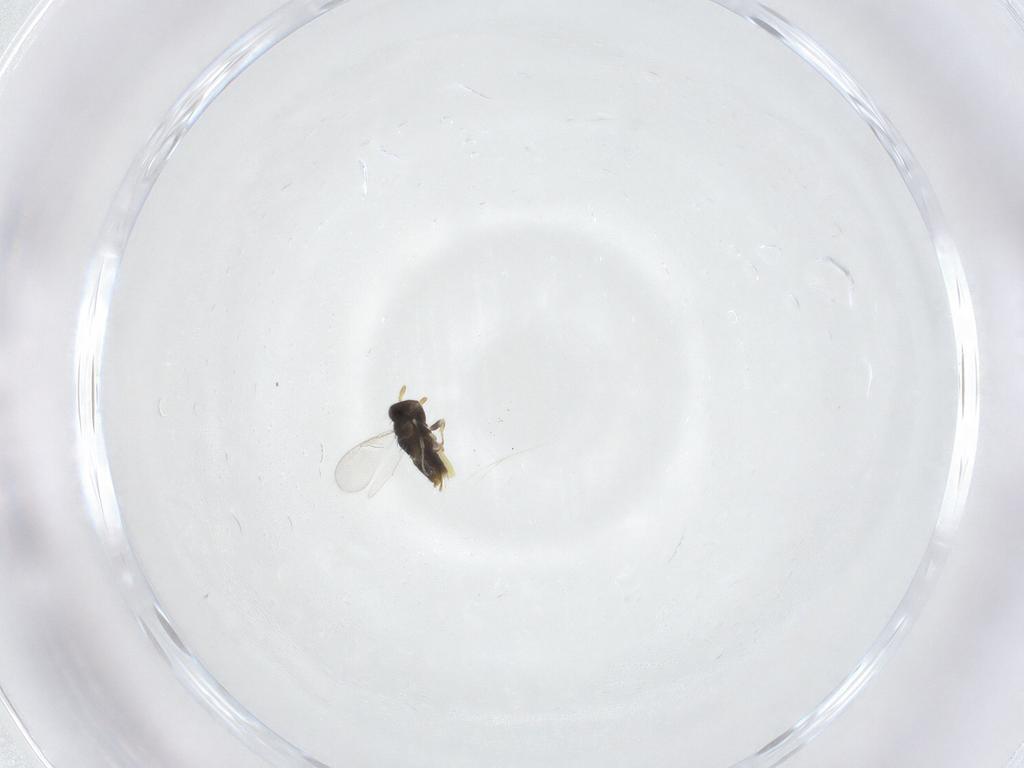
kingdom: Animalia
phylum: Arthropoda
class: Insecta
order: Hymenoptera
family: Aphelinidae
